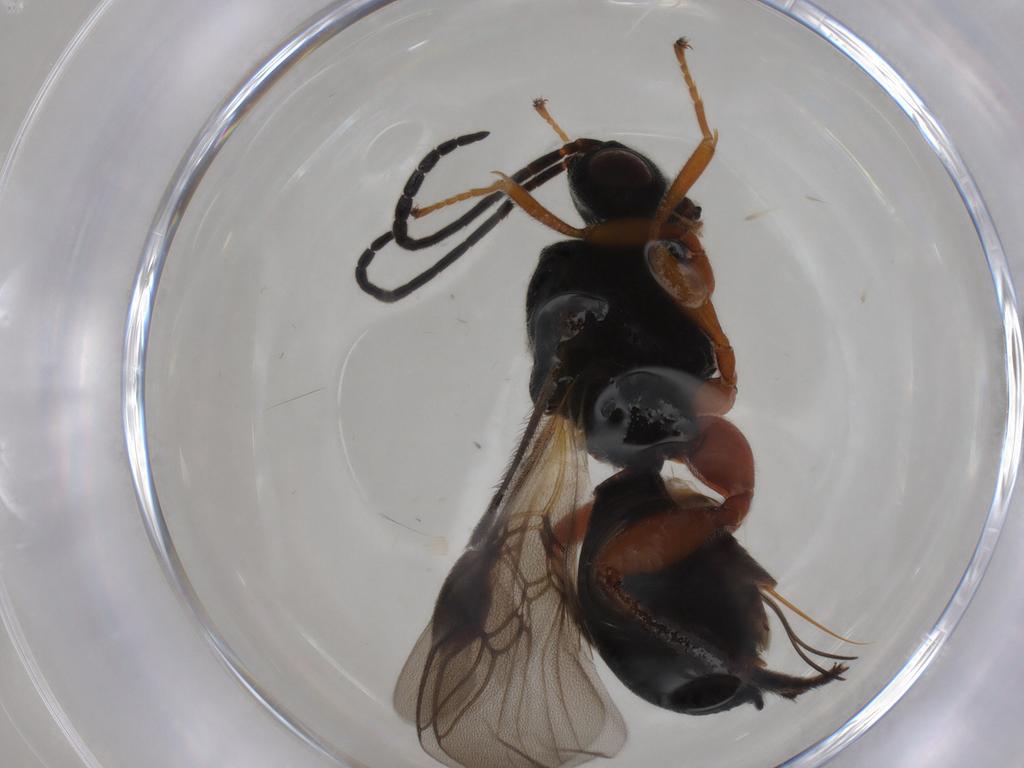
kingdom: Animalia
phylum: Arthropoda
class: Insecta
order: Hymenoptera
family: Braconidae
